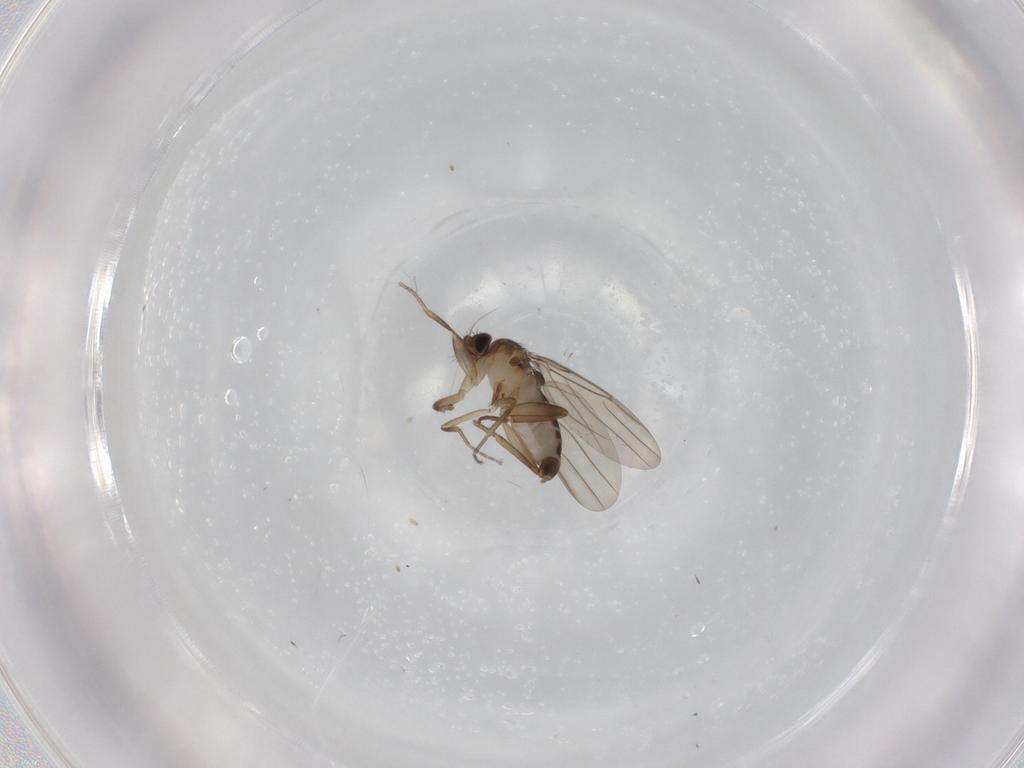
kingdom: Animalia
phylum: Arthropoda
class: Insecta
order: Diptera
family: Phoridae
